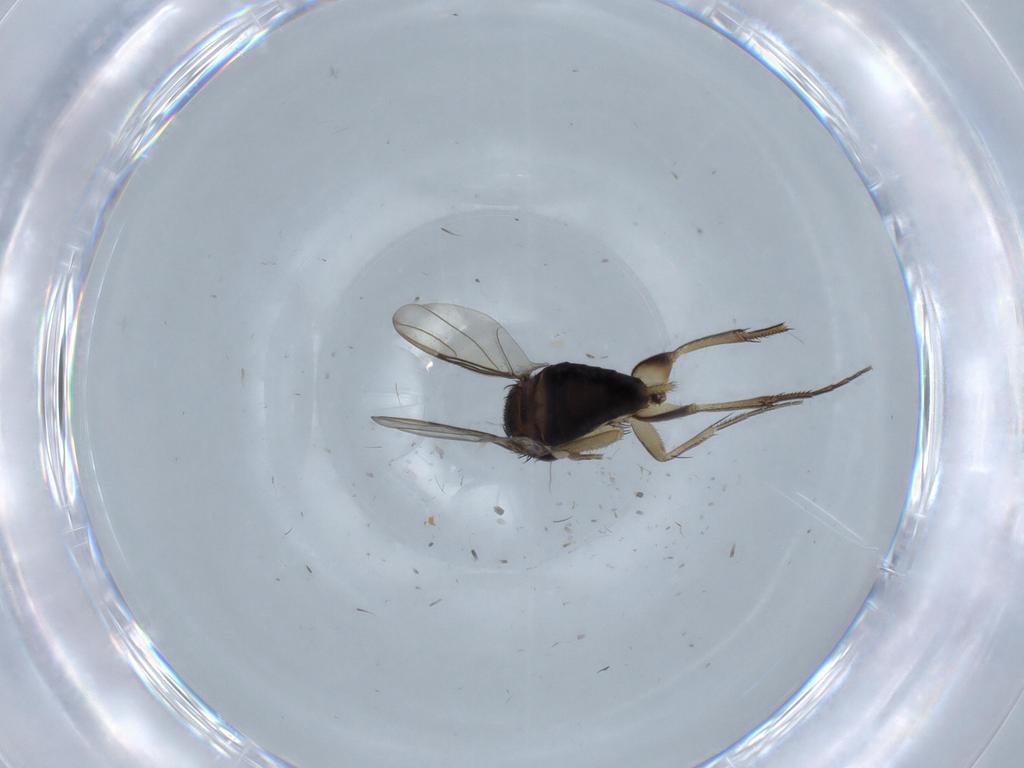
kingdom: Animalia
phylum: Arthropoda
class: Insecta
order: Diptera
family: Phoridae
